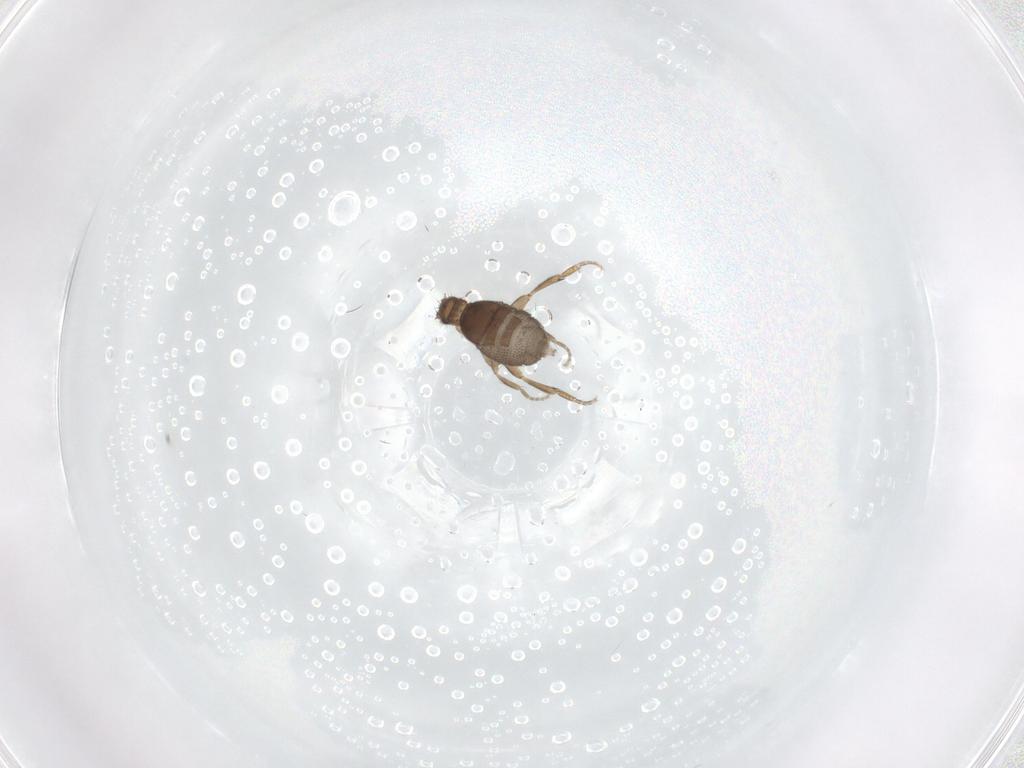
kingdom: Animalia
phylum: Arthropoda
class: Insecta
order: Diptera
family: Phoridae
